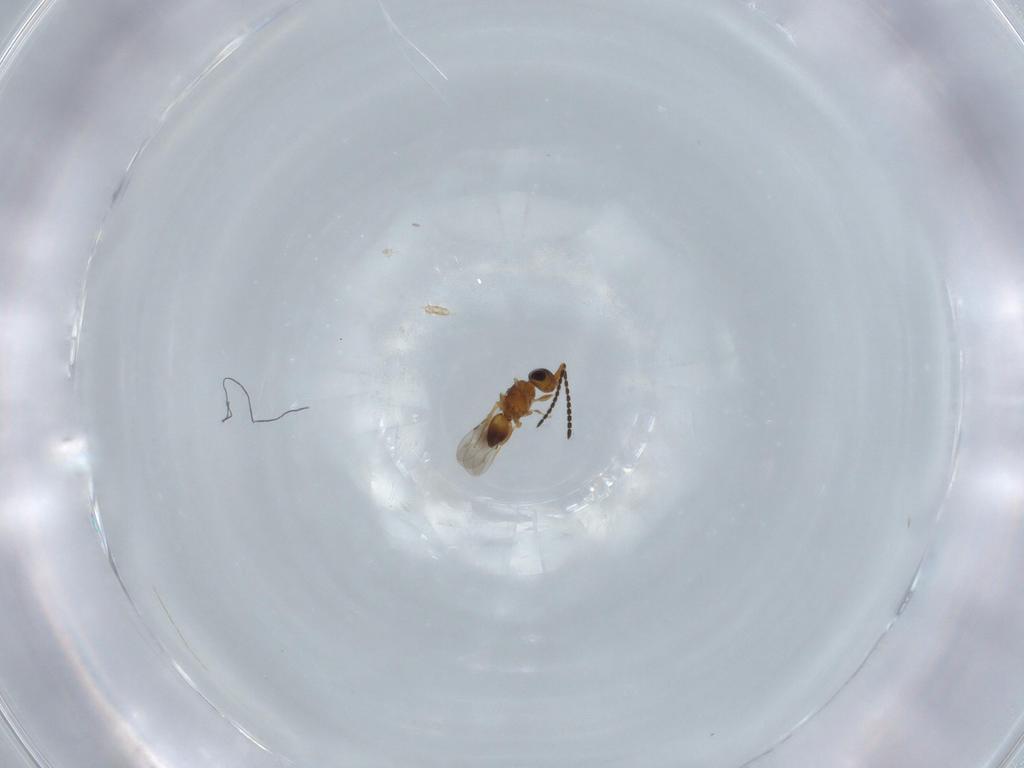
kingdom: Animalia
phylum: Arthropoda
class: Insecta
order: Hymenoptera
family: Ceraphronidae
